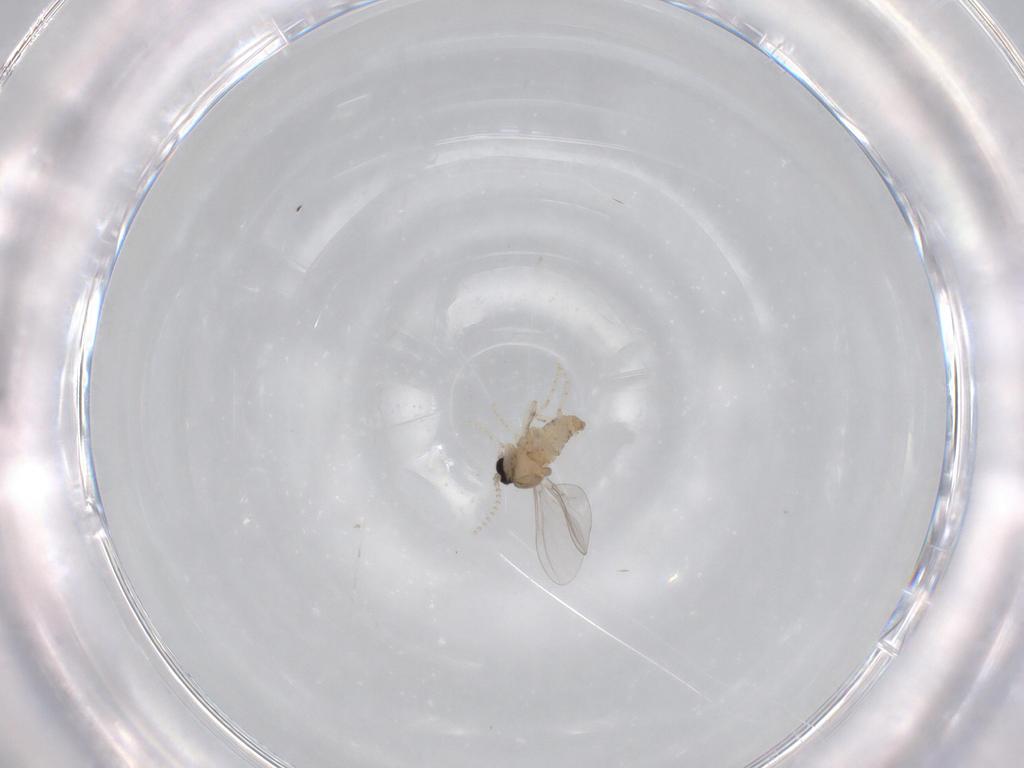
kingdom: Animalia
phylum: Arthropoda
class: Insecta
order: Diptera
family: Cecidomyiidae
